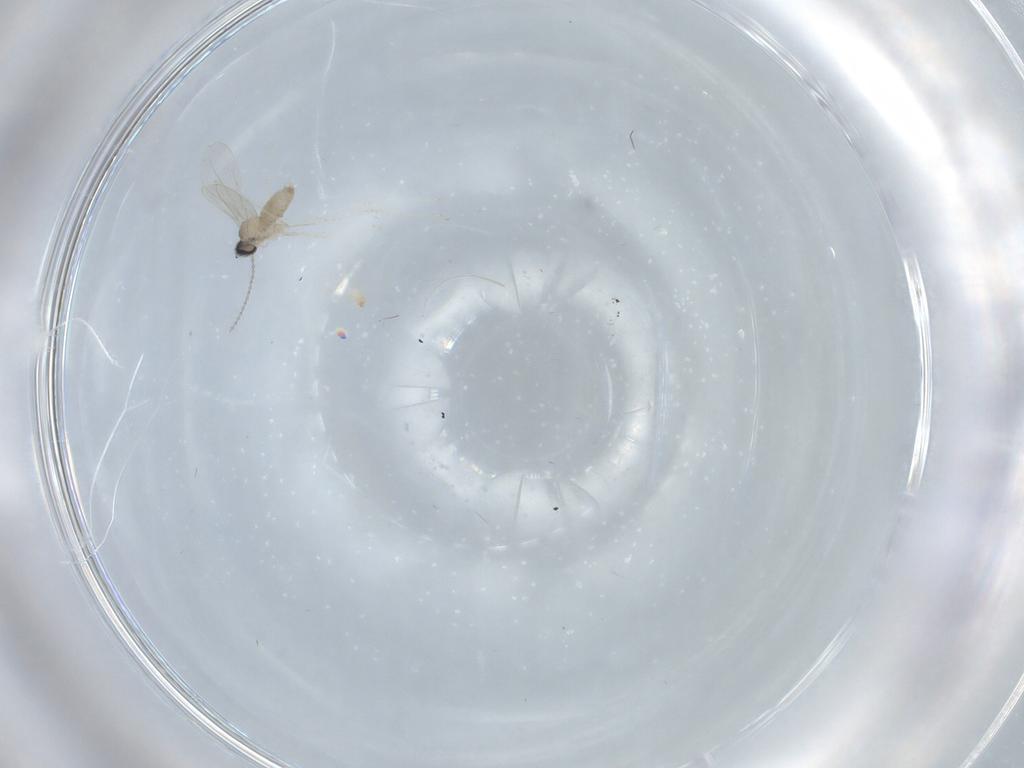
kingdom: Animalia
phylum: Arthropoda
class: Insecta
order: Diptera
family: Cecidomyiidae
